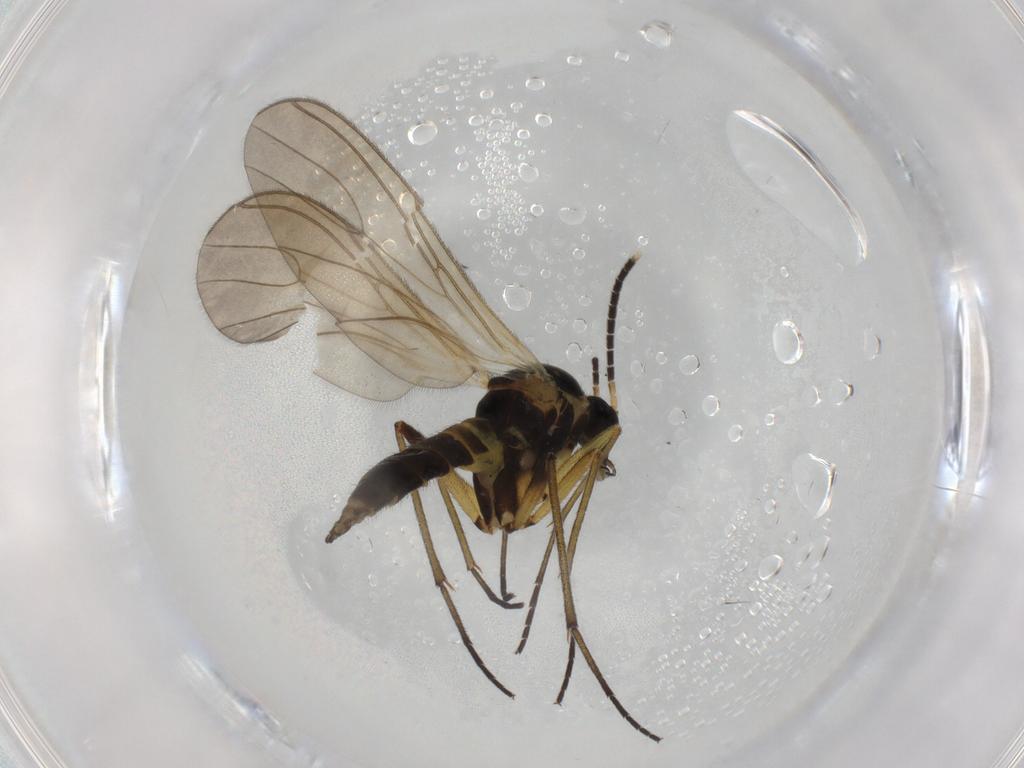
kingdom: Animalia
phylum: Arthropoda
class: Insecta
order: Diptera
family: Sciaridae
